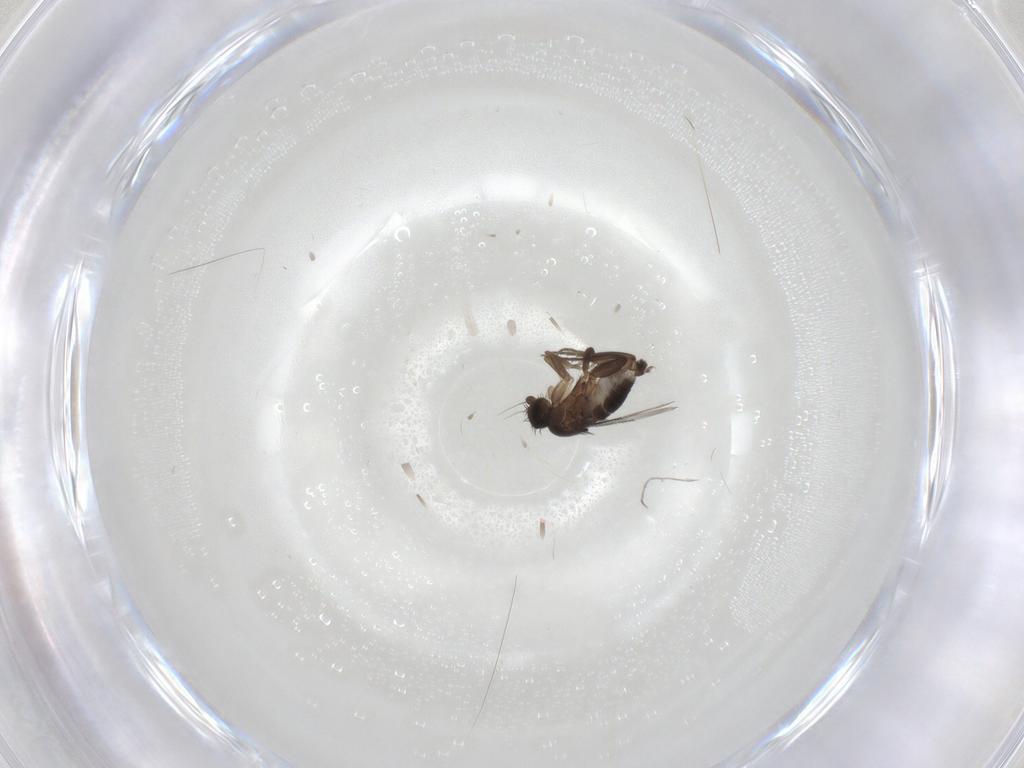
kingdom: Animalia
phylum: Arthropoda
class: Insecta
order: Diptera
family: Phoridae
